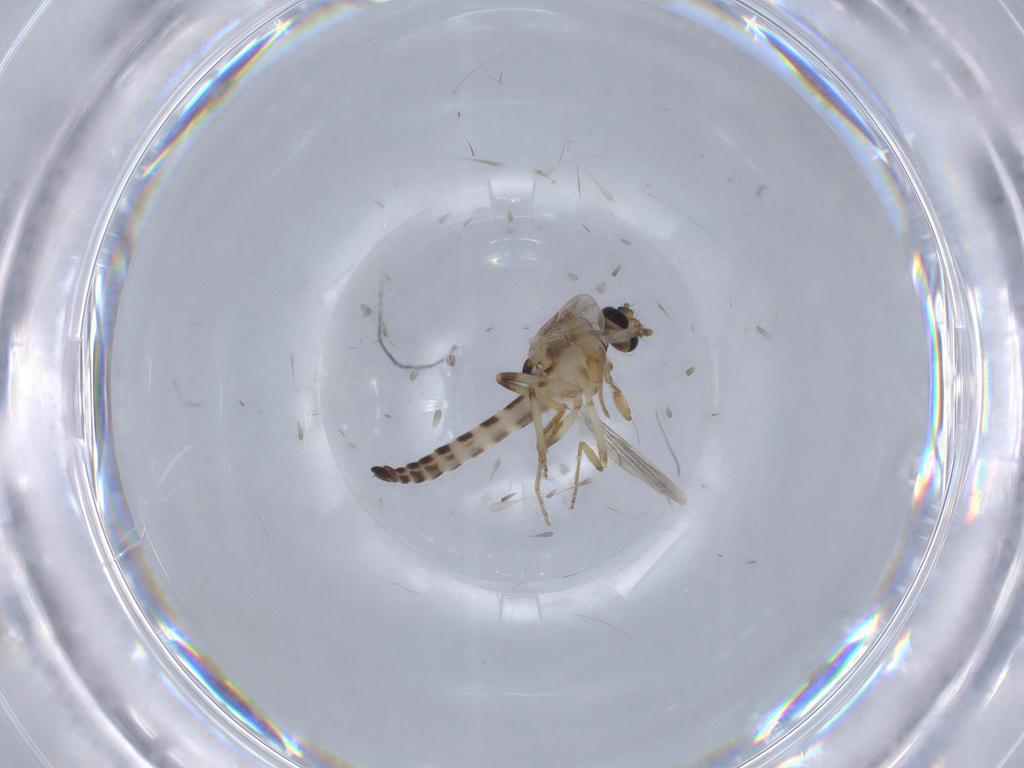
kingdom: Animalia
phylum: Arthropoda
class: Insecta
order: Diptera
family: Ceratopogonidae
